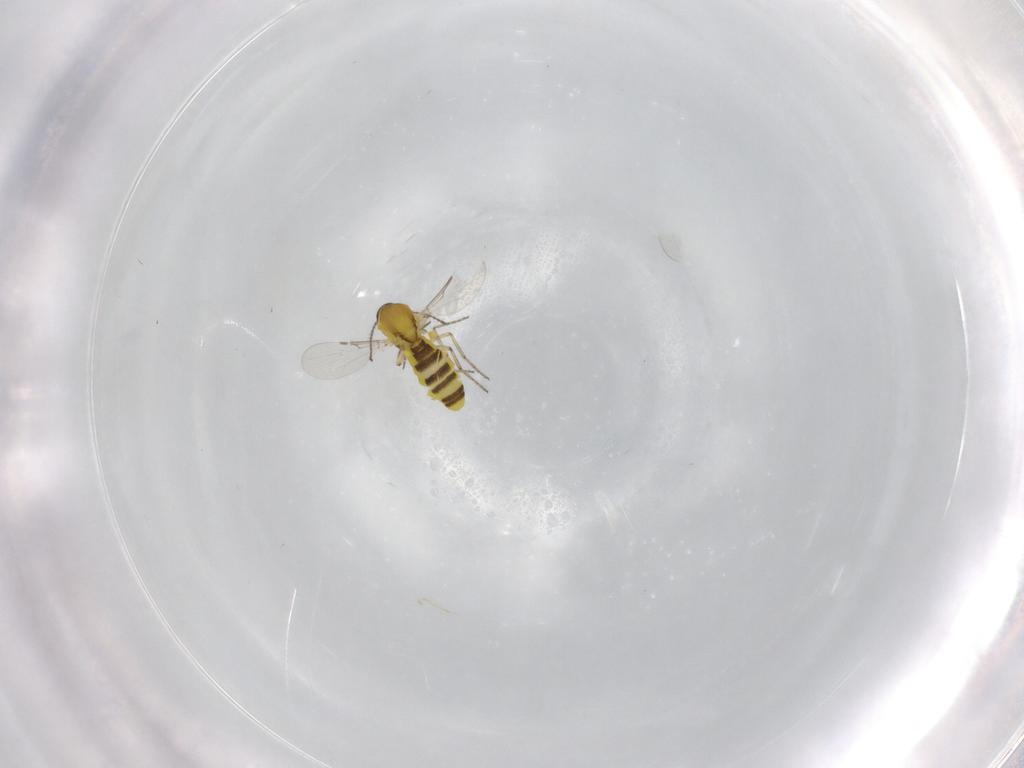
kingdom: Animalia
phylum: Arthropoda
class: Insecta
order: Diptera
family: Ceratopogonidae
